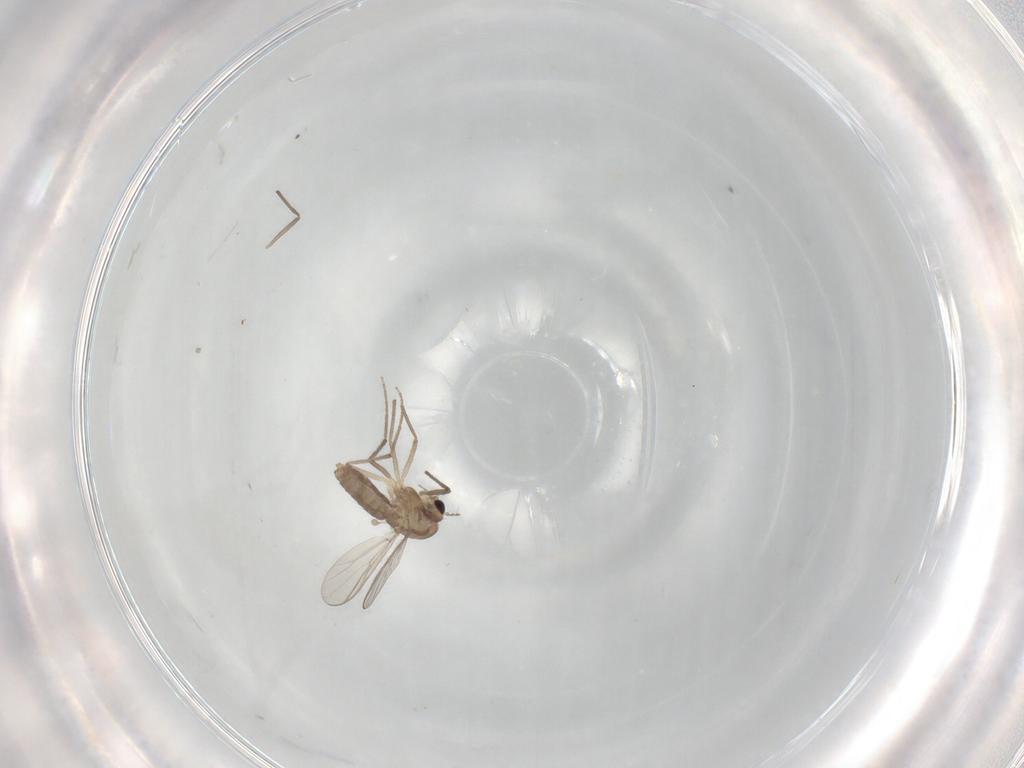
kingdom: Animalia
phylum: Arthropoda
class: Insecta
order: Diptera
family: Chironomidae
